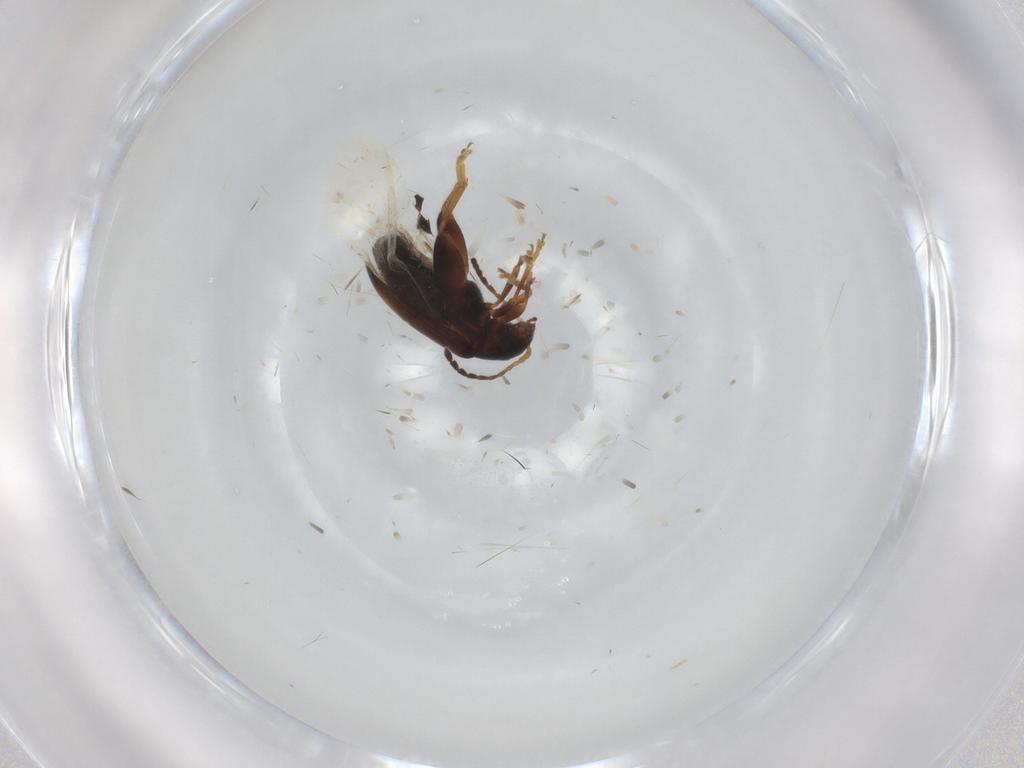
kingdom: Animalia
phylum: Arthropoda
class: Insecta
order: Coleoptera
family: Chrysomelidae
